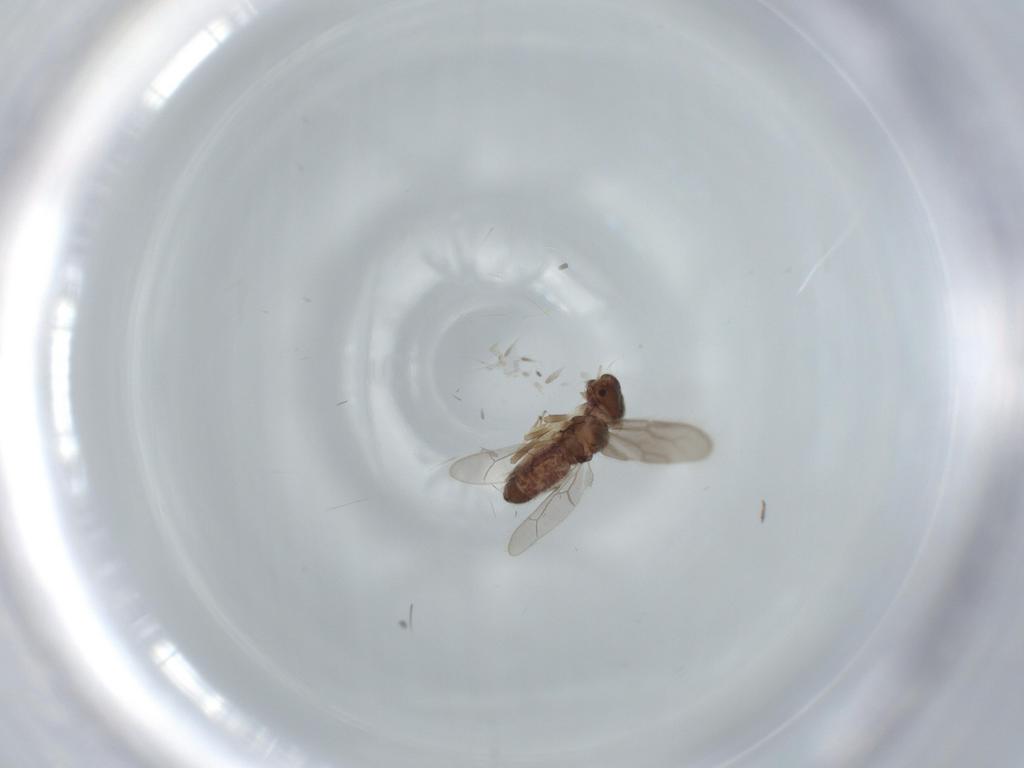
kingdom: Animalia
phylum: Arthropoda
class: Insecta
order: Psocodea
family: Archipsocidae
